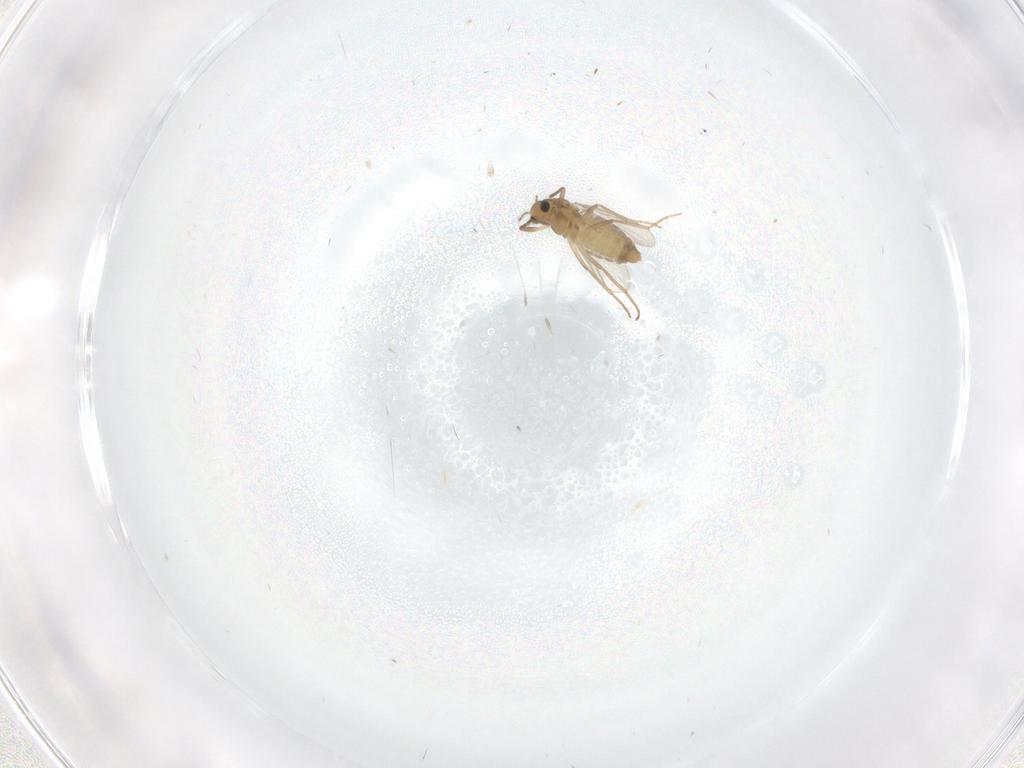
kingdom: Animalia
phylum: Arthropoda
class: Insecta
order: Diptera
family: Chironomidae
